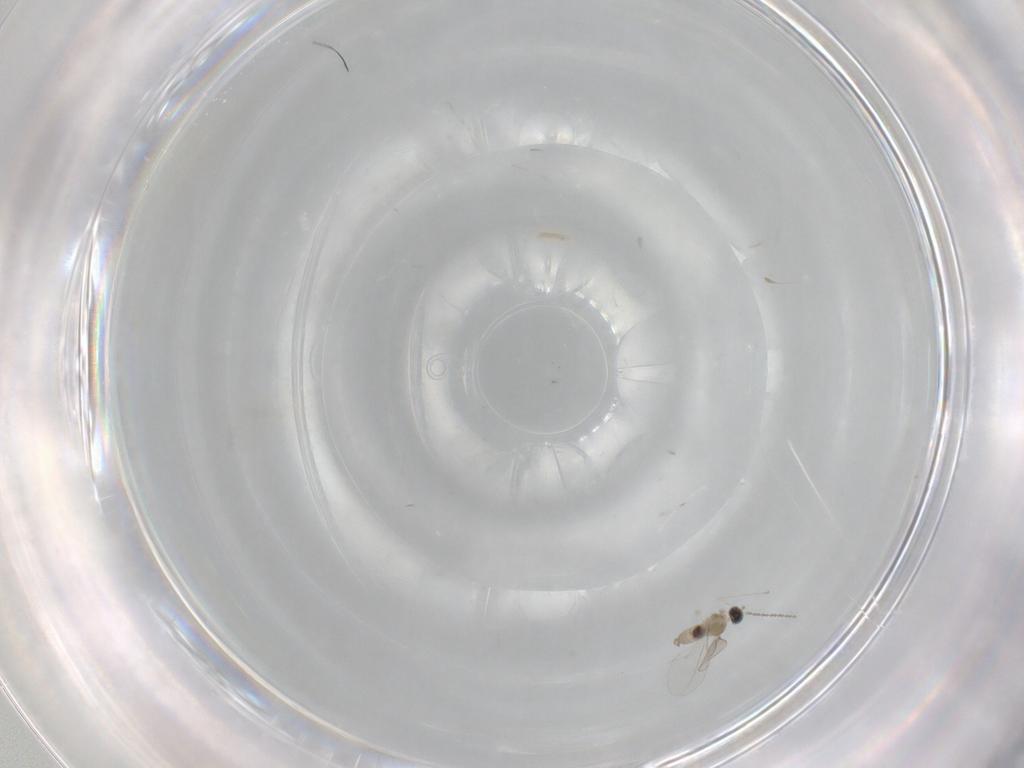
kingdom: Animalia
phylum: Arthropoda
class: Insecta
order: Diptera
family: Cecidomyiidae
